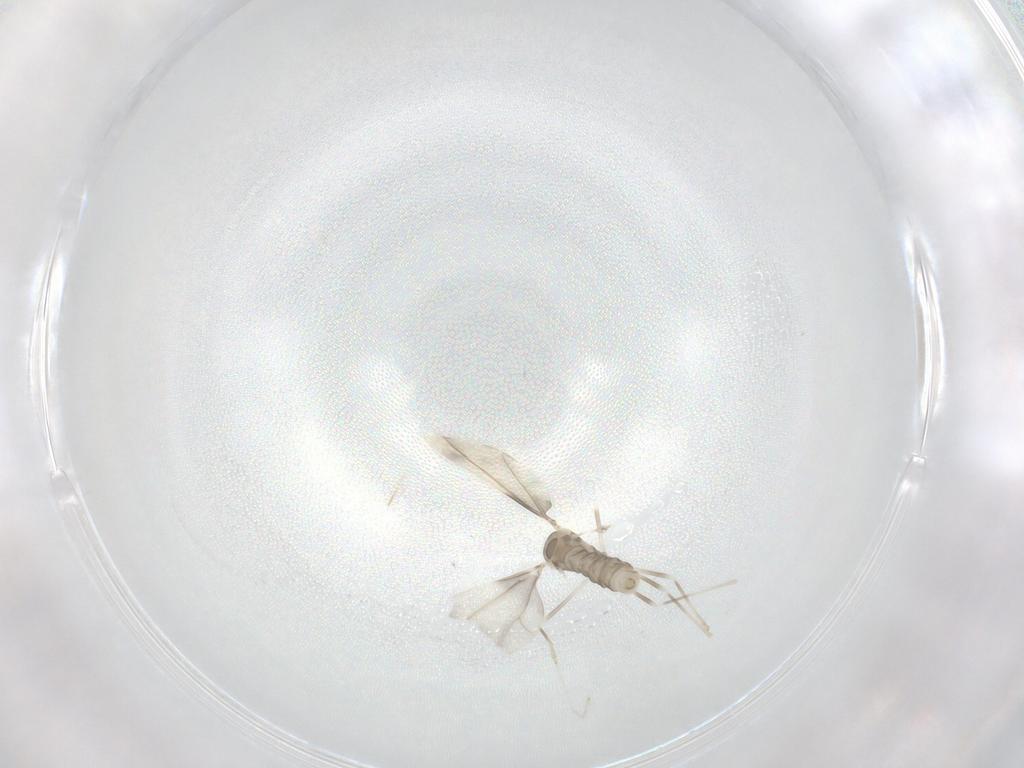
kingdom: Animalia
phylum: Arthropoda
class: Insecta
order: Diptera
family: Cecidomyiidae
